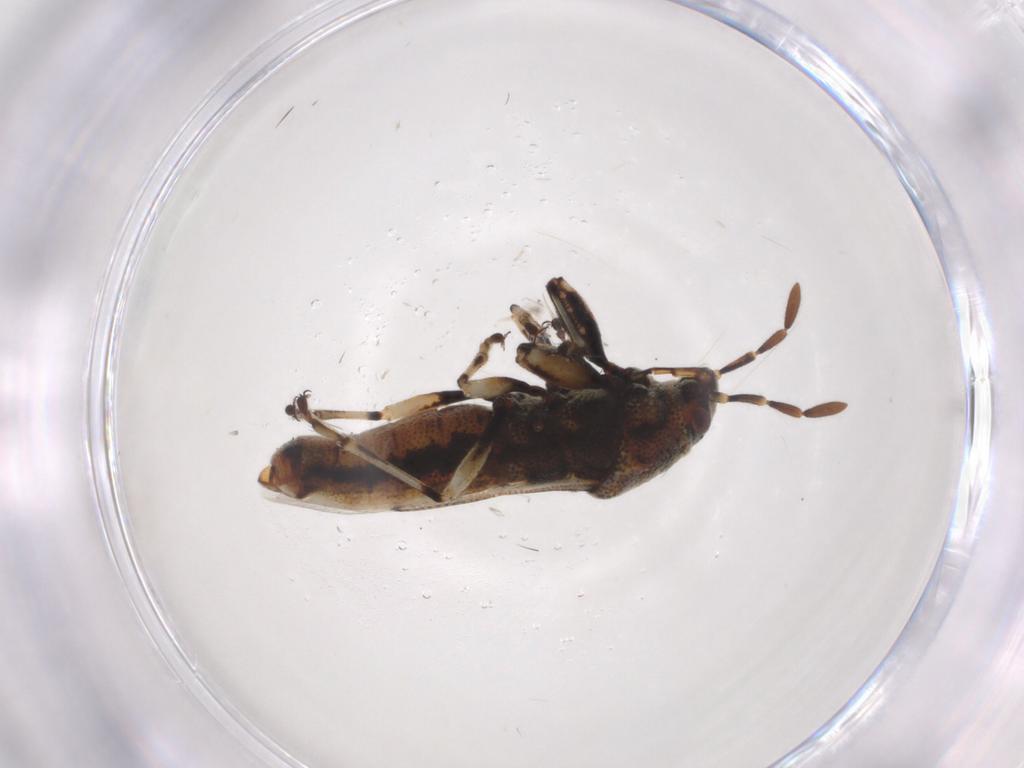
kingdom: Animalia
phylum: Arthropoda
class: Insecta
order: Hemiptera
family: Pachygronthidae
